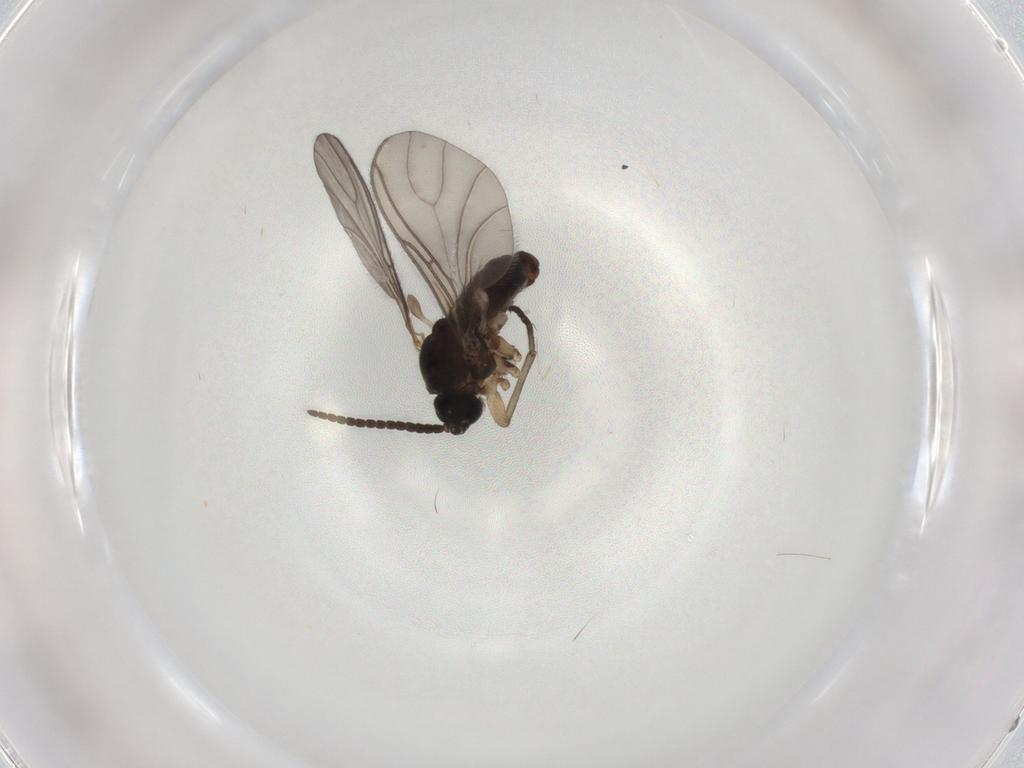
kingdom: Animalia
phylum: Arthropoda
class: Insecta
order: Diptera
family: Sciaridae
